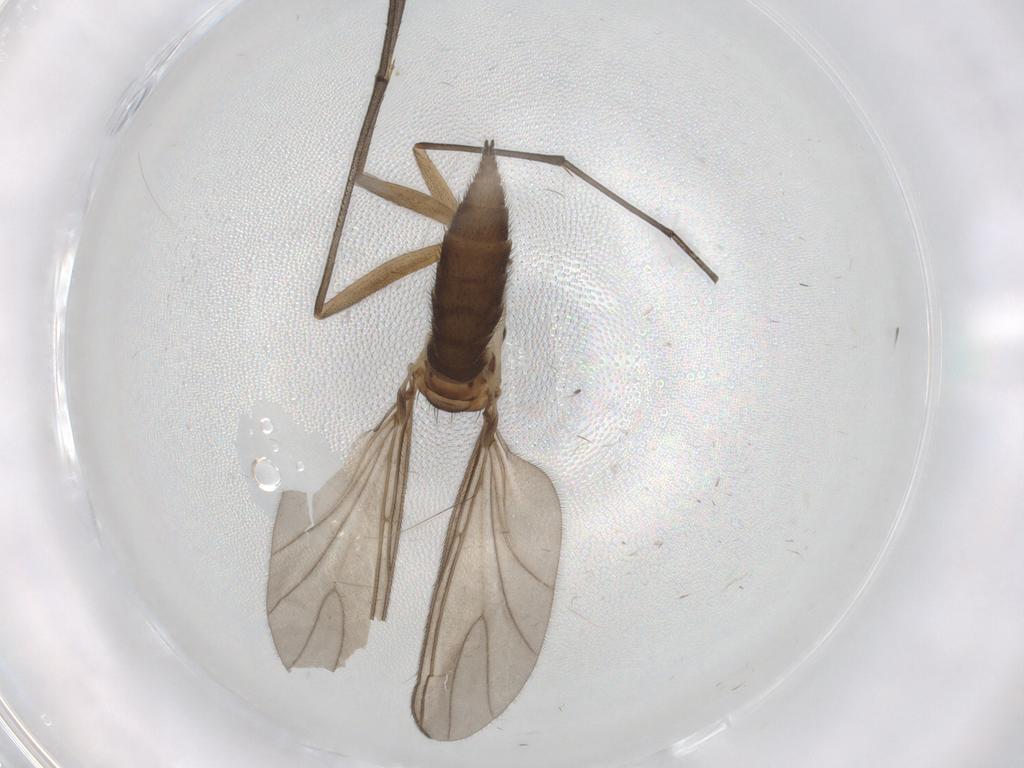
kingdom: Animalia
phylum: Arthropoda
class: Insecta
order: Diptera
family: Sciaridae
